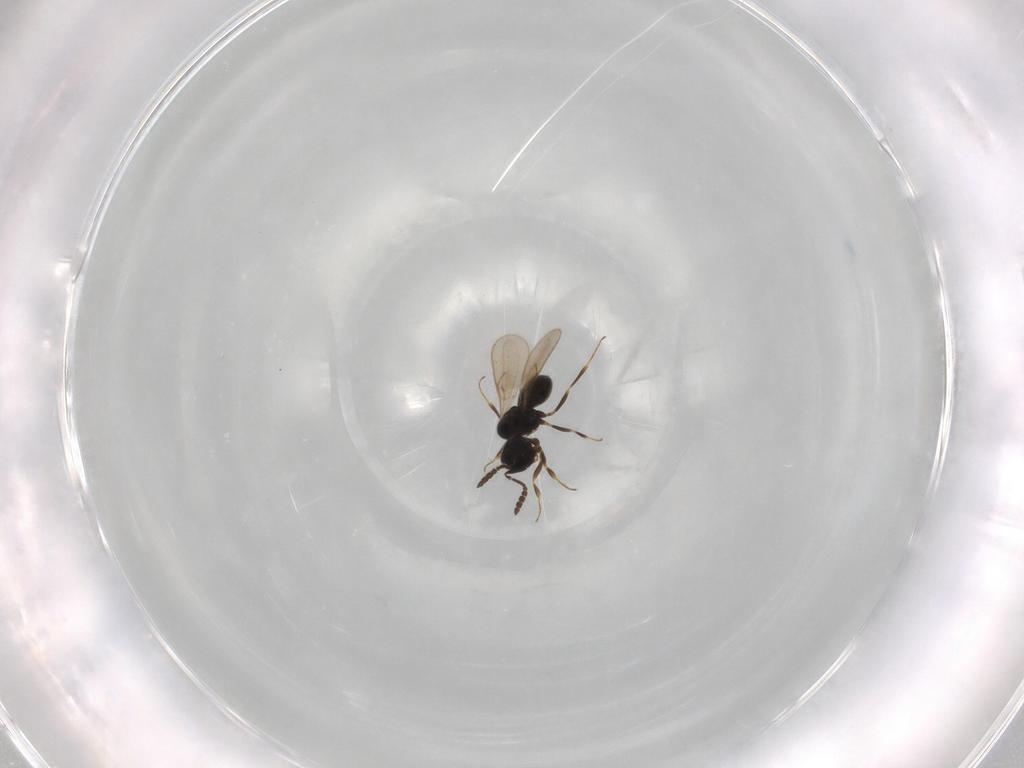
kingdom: Animalia
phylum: Arthropoda
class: Insecta
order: Hymenoptera
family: Scelionidae
